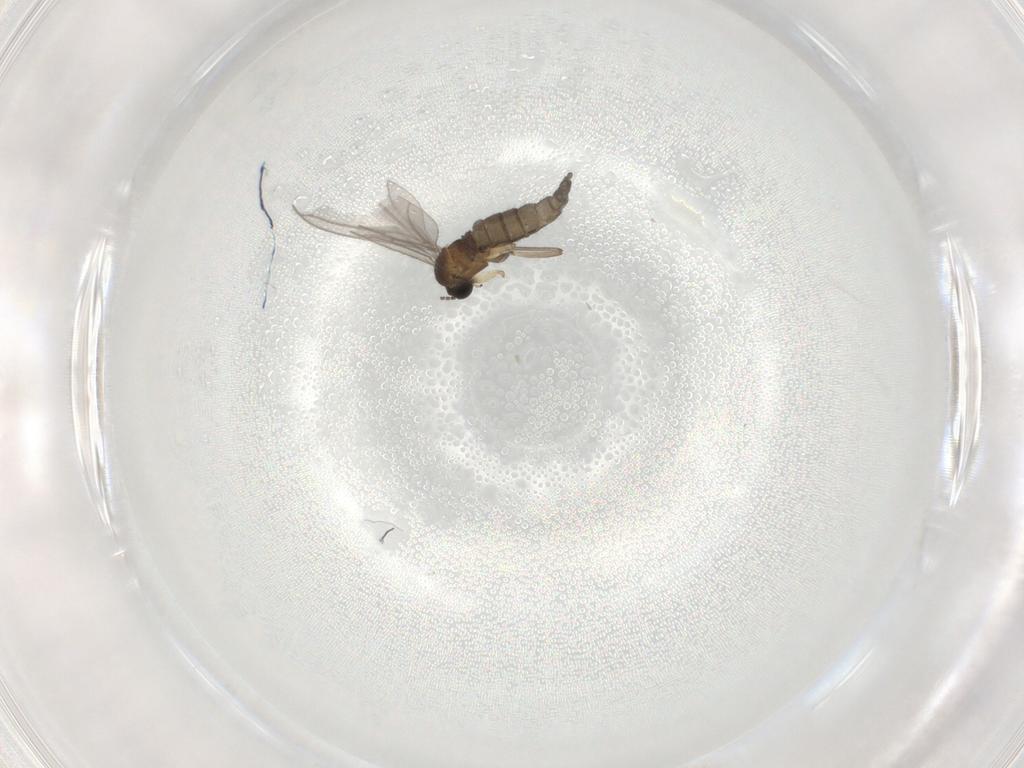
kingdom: Animalia
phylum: Arthropoda
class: Insecta
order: Diptera
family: Sciaridae
